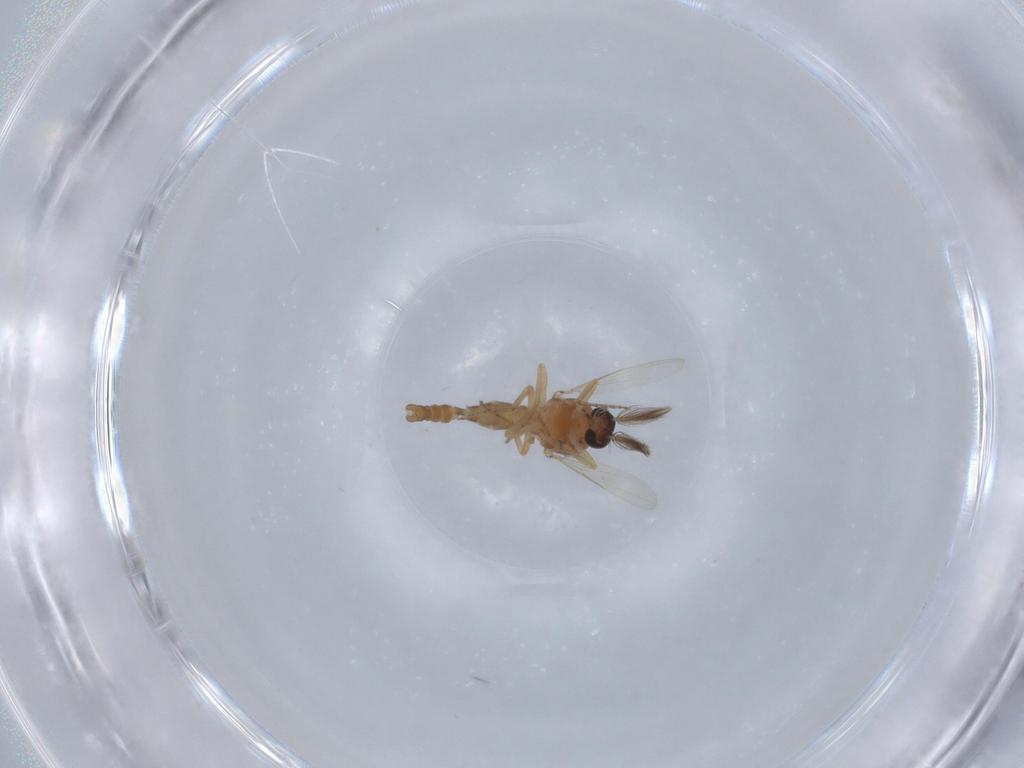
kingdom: Animalia
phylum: Arthropoda
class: Insecta
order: Diptera
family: Ceratopogonidae
